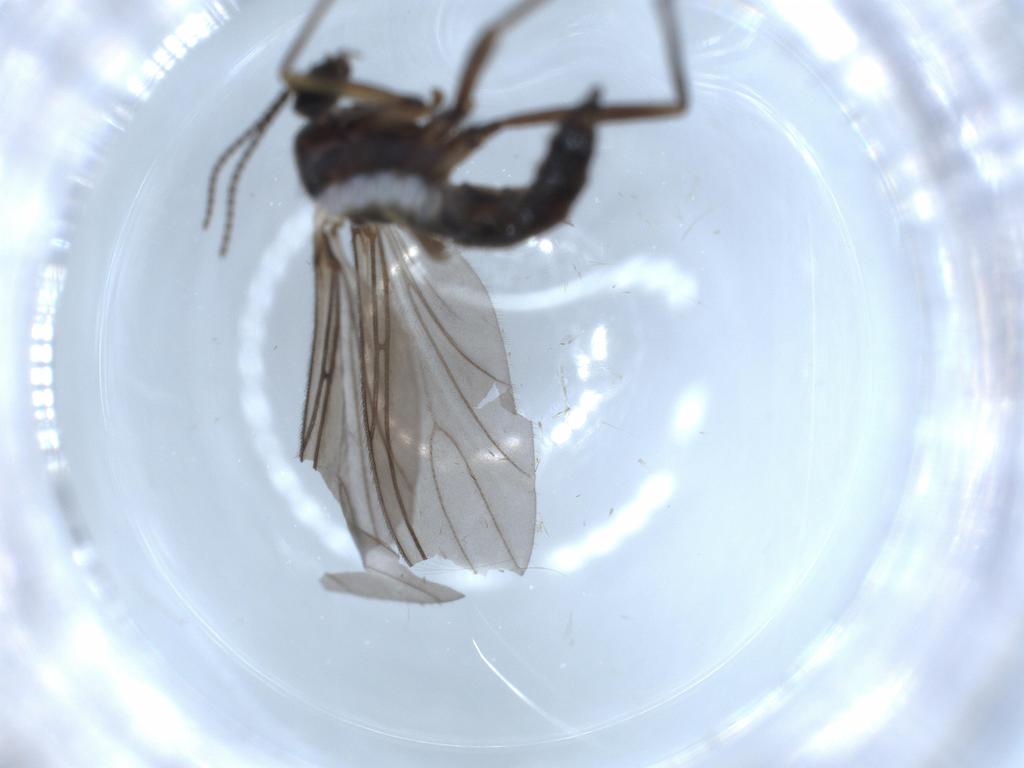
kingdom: Animalia
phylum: Arthropoda
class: Insecta
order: Diptera
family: Sciaridae
